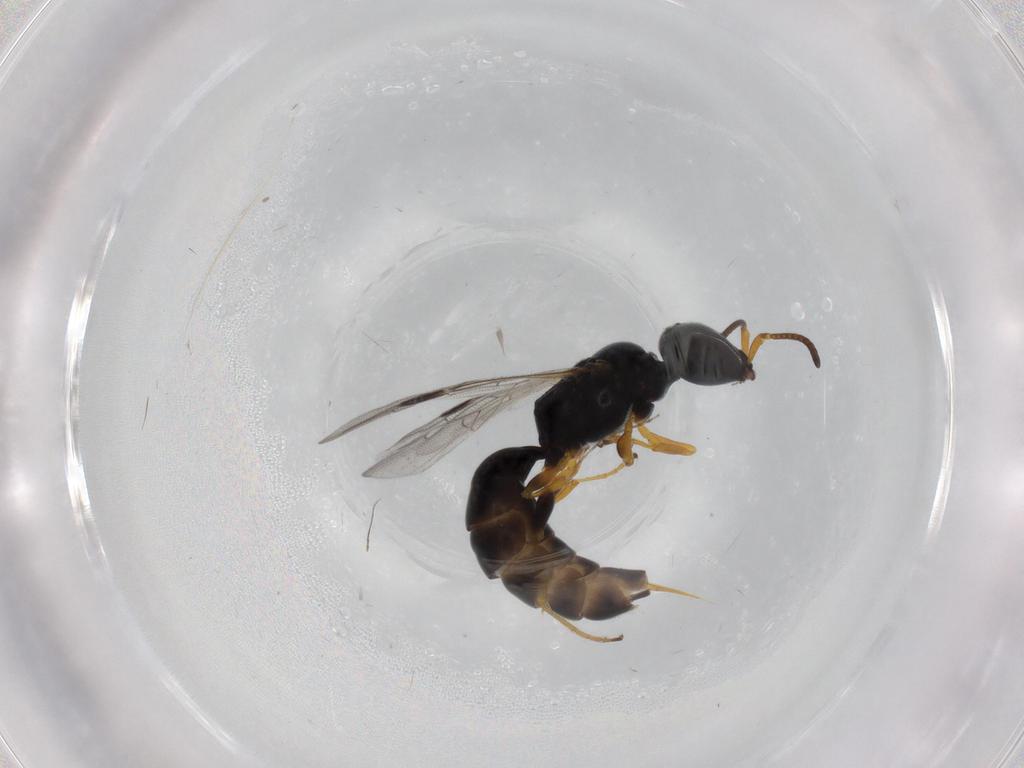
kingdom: Animalia
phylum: Arthropoda
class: Insecta
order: Hymenoptera
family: Pemphredonidae
